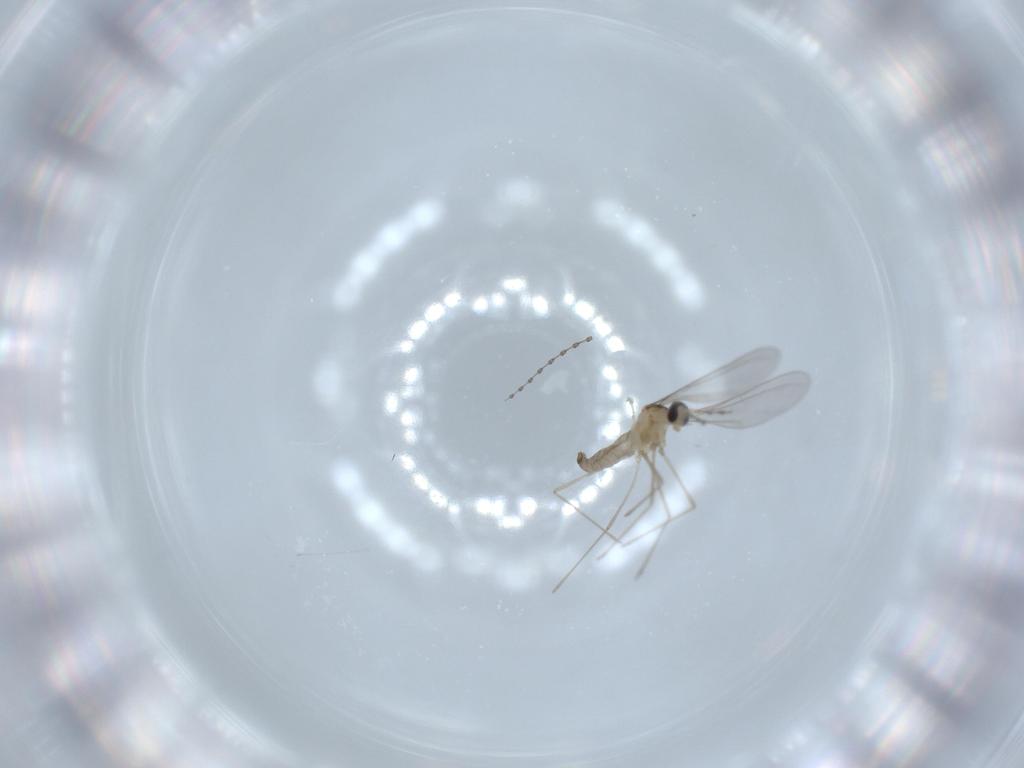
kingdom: Animalia
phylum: Arthropoda
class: Insecta
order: Diptera
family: Cecidomyiidae
